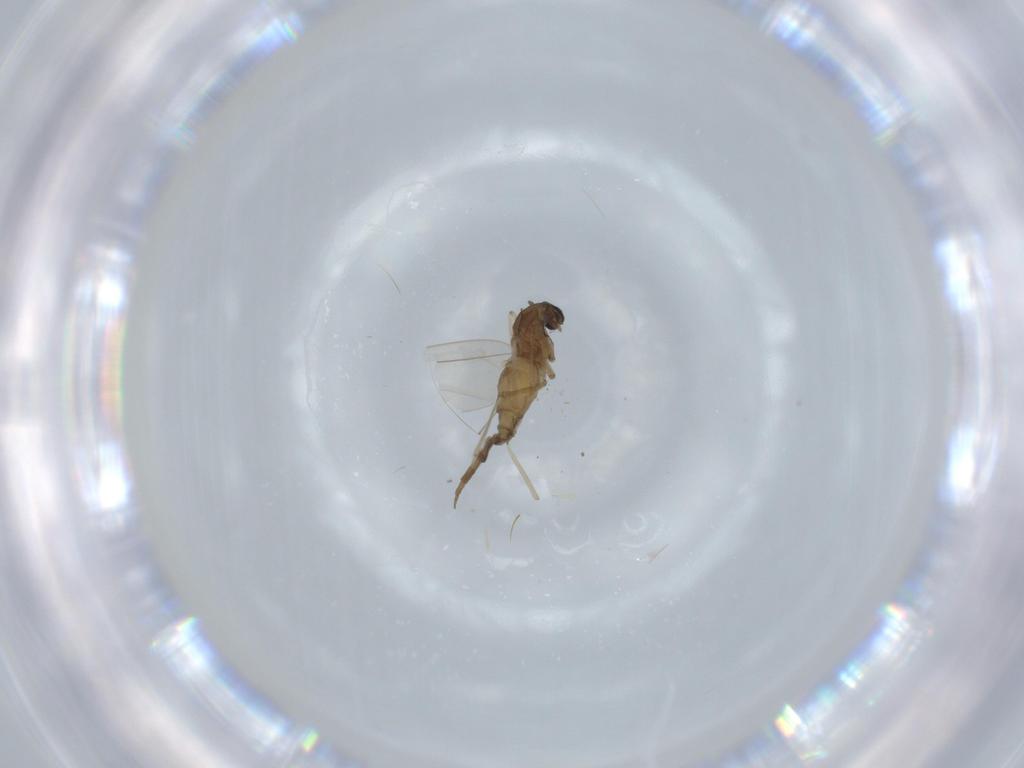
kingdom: Animalia
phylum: Arthropoda
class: Insecta
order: Diptera
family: Cecidomyiidae
